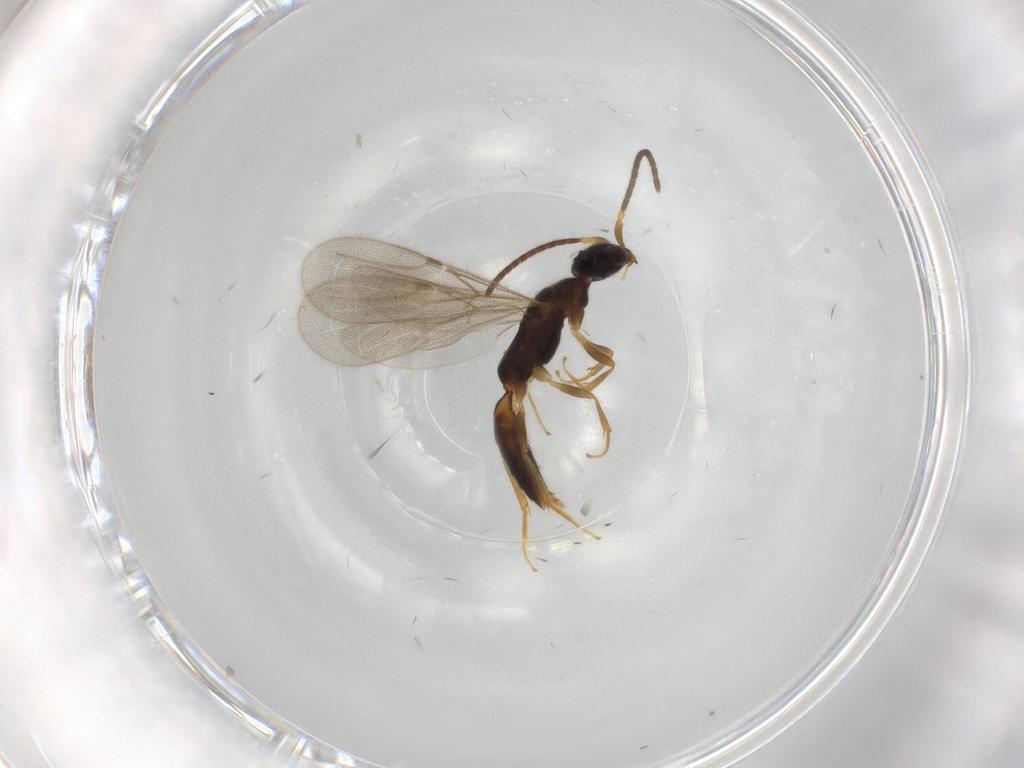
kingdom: Animalia
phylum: Arthropoda
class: Insecta
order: Hymenoptera
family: Bethylidae
